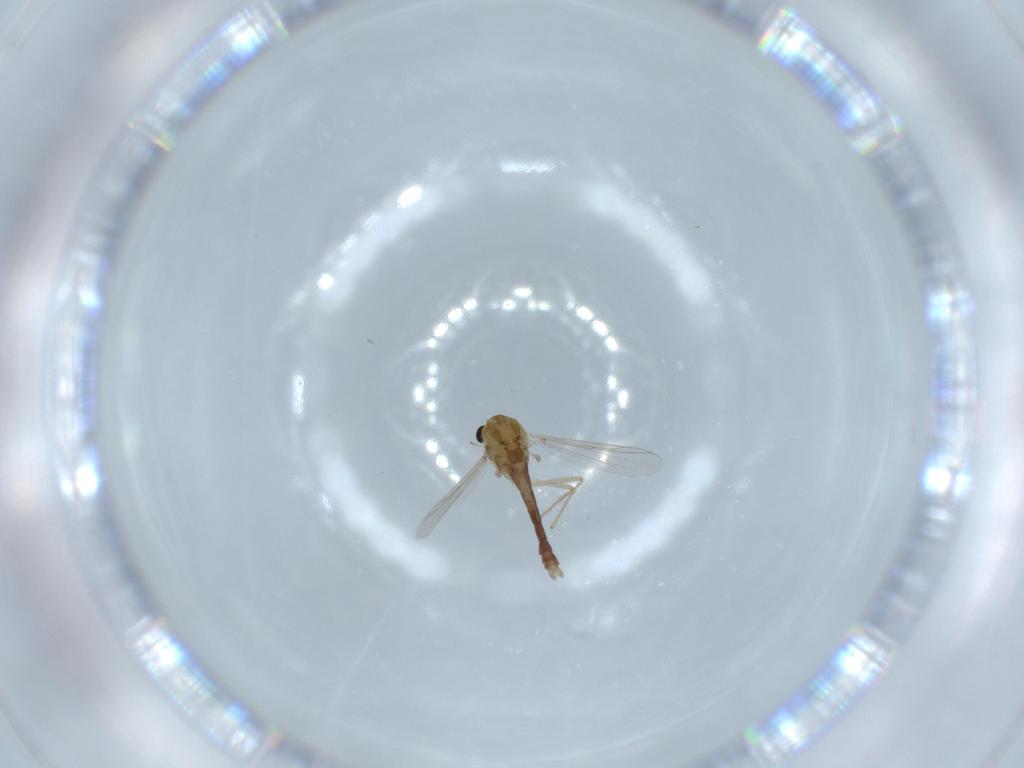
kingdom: Animalia
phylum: Arthropoda
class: Insecta
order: Diptera
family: Chironomidae
